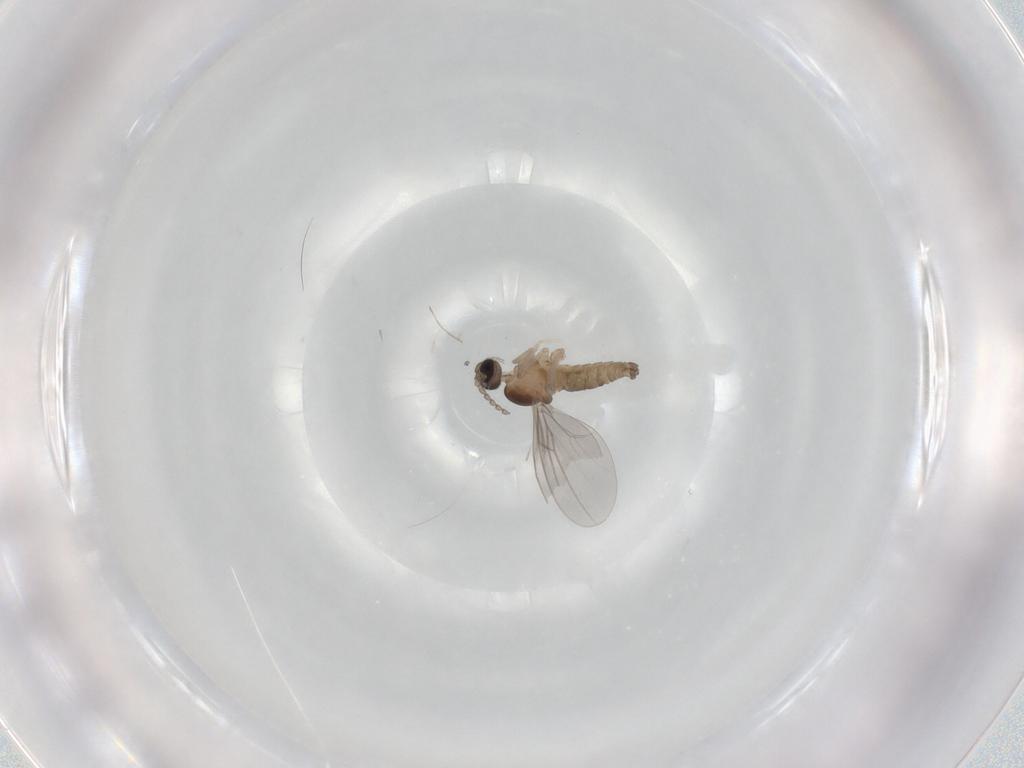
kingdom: Animalia
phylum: Arthropoda
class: Insecta
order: Diptera
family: Cecidomyiidae
